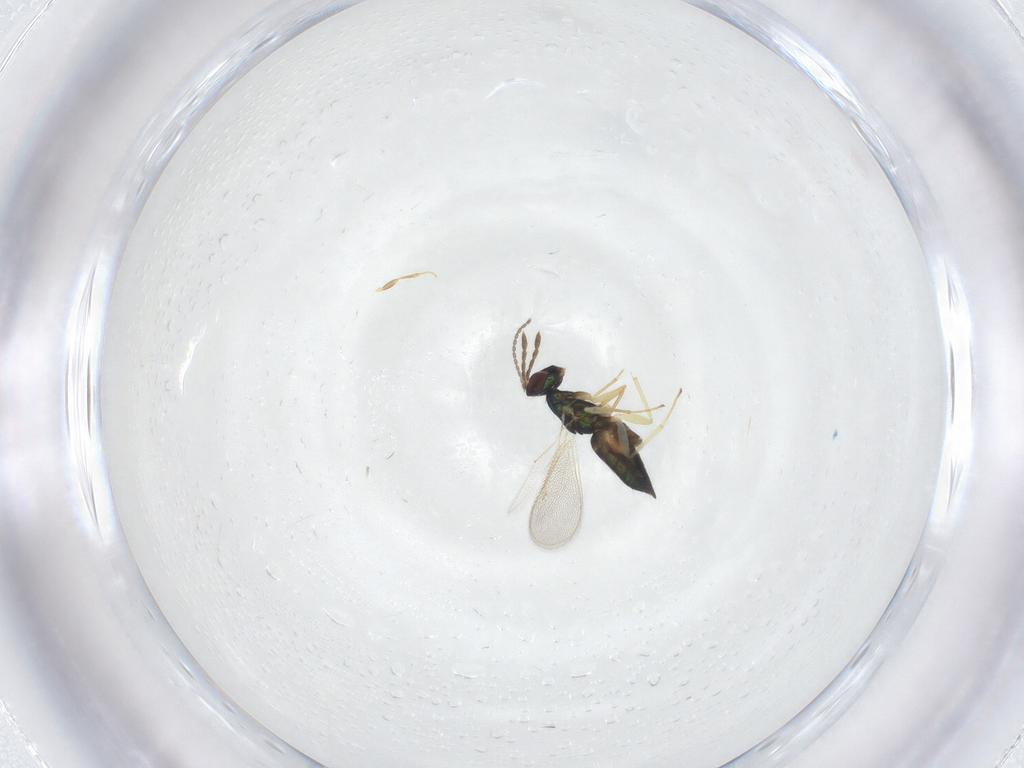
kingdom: Animalia
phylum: Arthropoda
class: Insecta
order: Hymenoptera
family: Eulophidae
